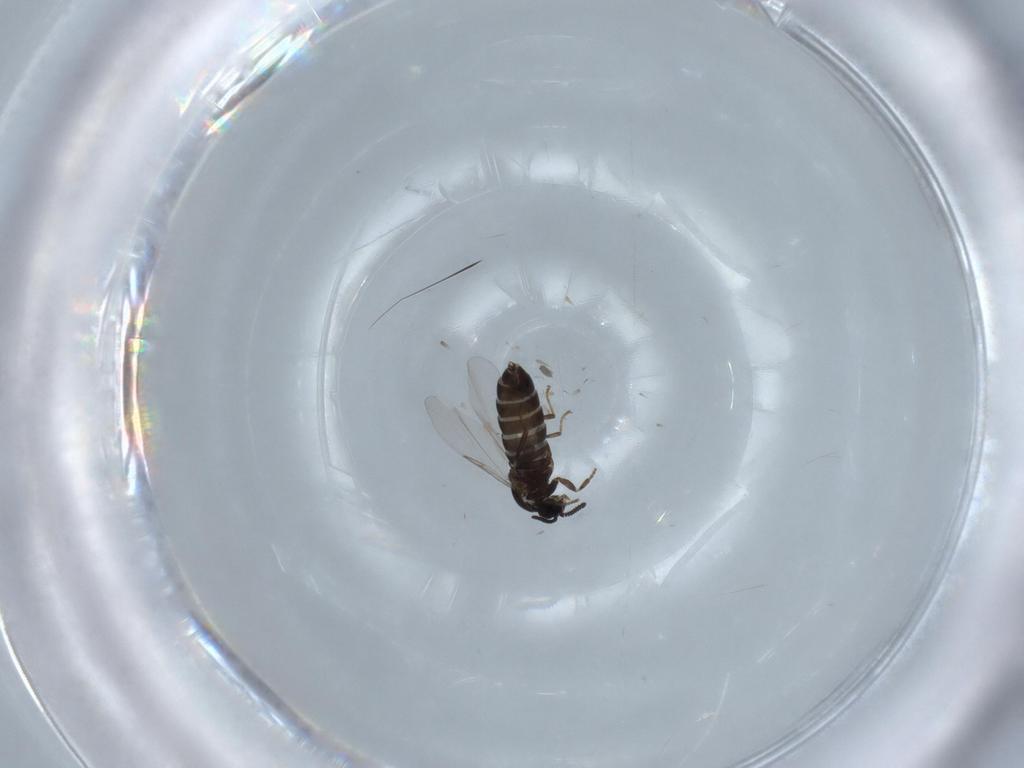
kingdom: Animalia
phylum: Arthropoda
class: Insecta
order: Diptera
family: Scatopsidae
